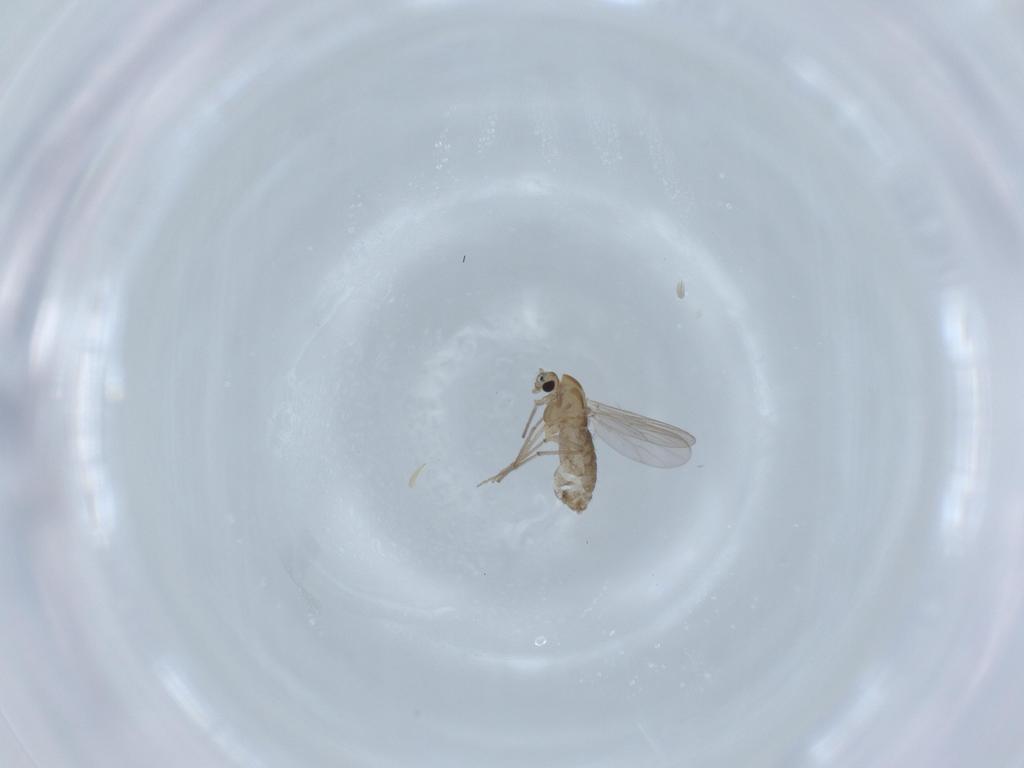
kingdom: Animalia
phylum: Arthropoda
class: Insecta
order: Diptera
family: Chironomidae
